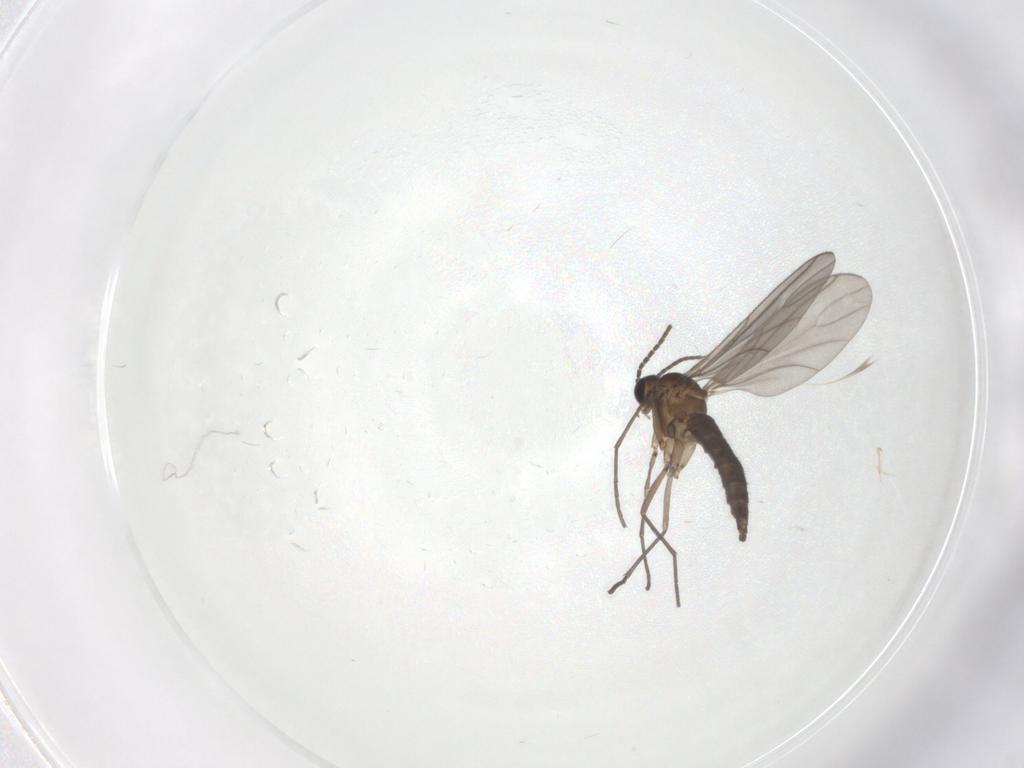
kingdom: Animalia
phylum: Arthropoda
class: Insecta
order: Diptera
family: Sciaridae
